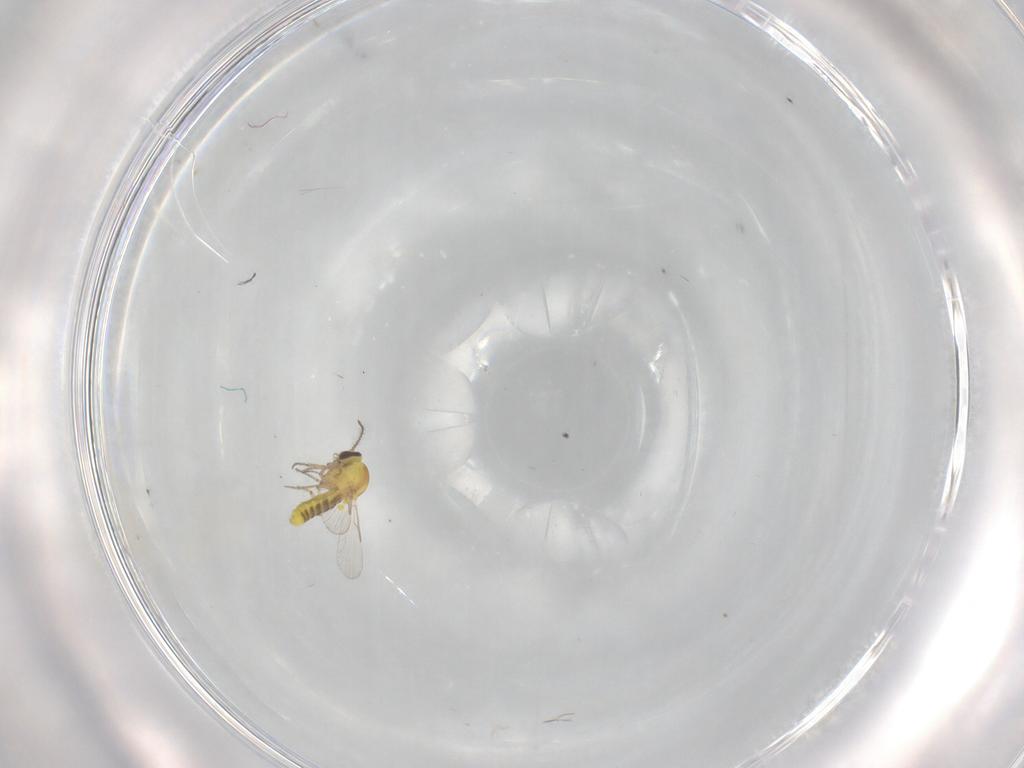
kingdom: Animalia
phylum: Arthropoda
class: Insecta
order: Diptera
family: Ceratopogonidae
